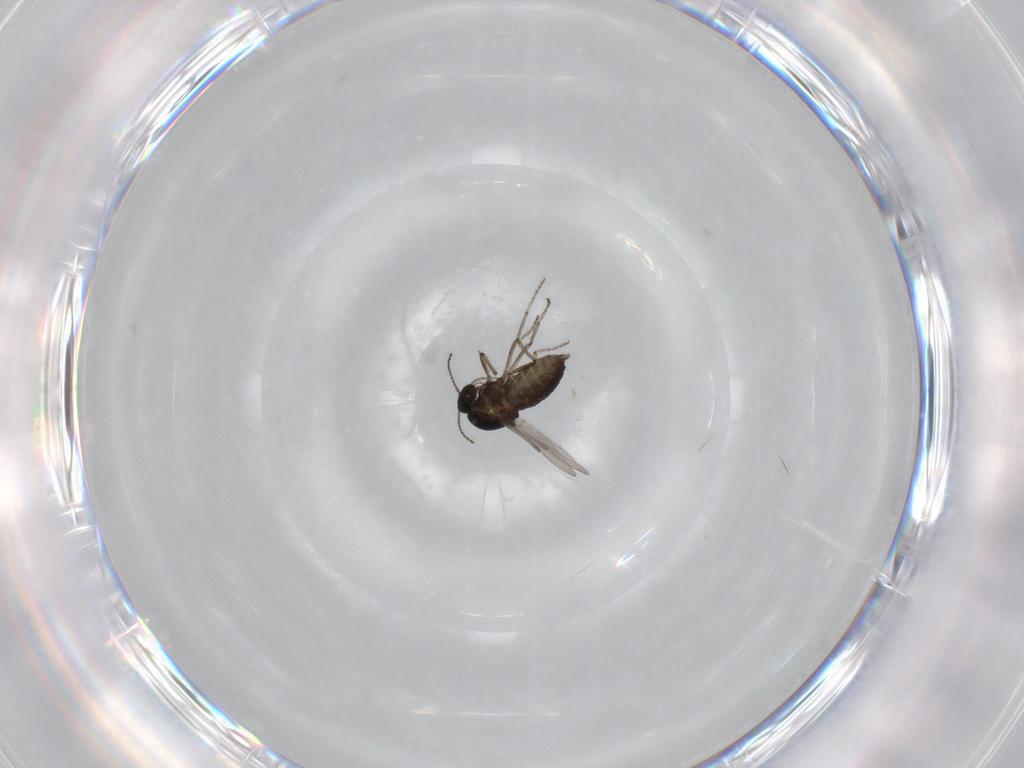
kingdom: Animalia
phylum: Arthropoda
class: Insecta
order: Diptera
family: Ceratopogonidae
